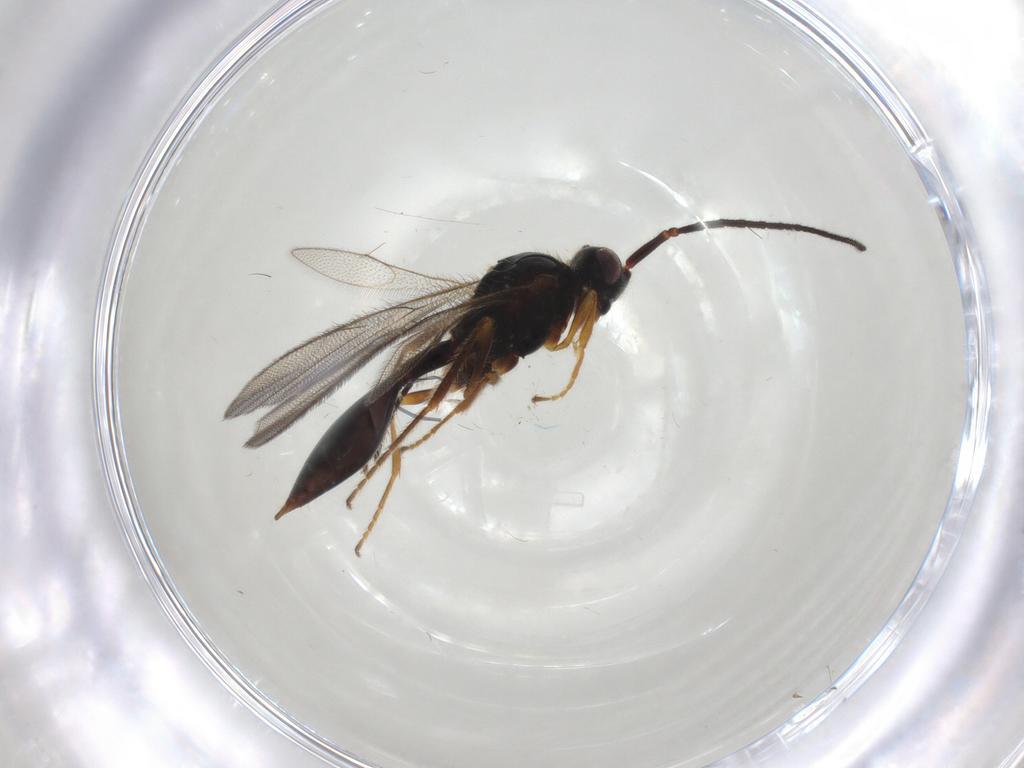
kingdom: Animalia
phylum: Arthropoda
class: Insecta
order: Hymenoptera
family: Diapriidae
